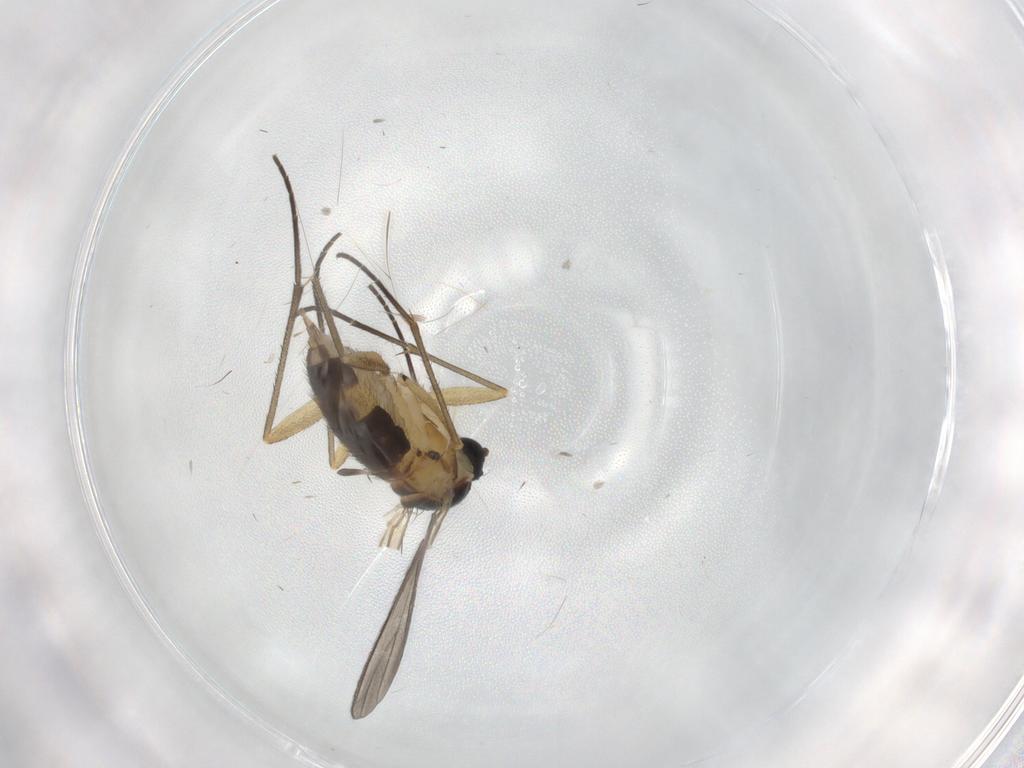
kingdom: Animalia
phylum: Arthropoda
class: Insecta
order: Diptera
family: Sciaridae
